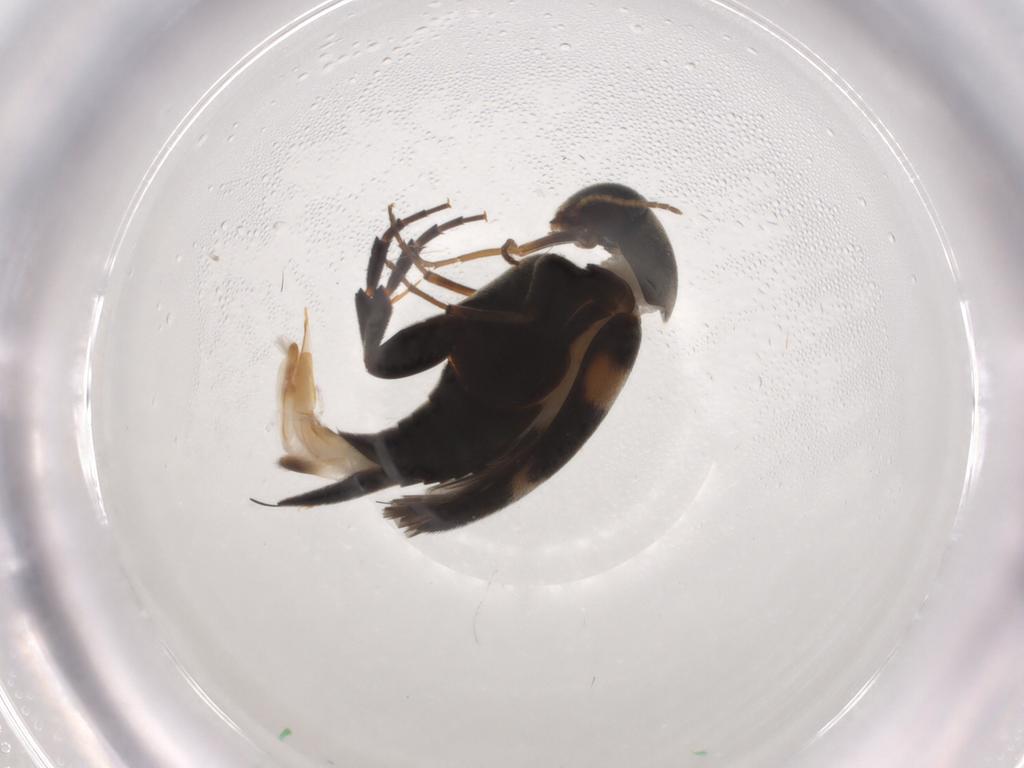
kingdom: Animalia
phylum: Arthropoda
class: Insecta
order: Coleoptera
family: Mordellidae
